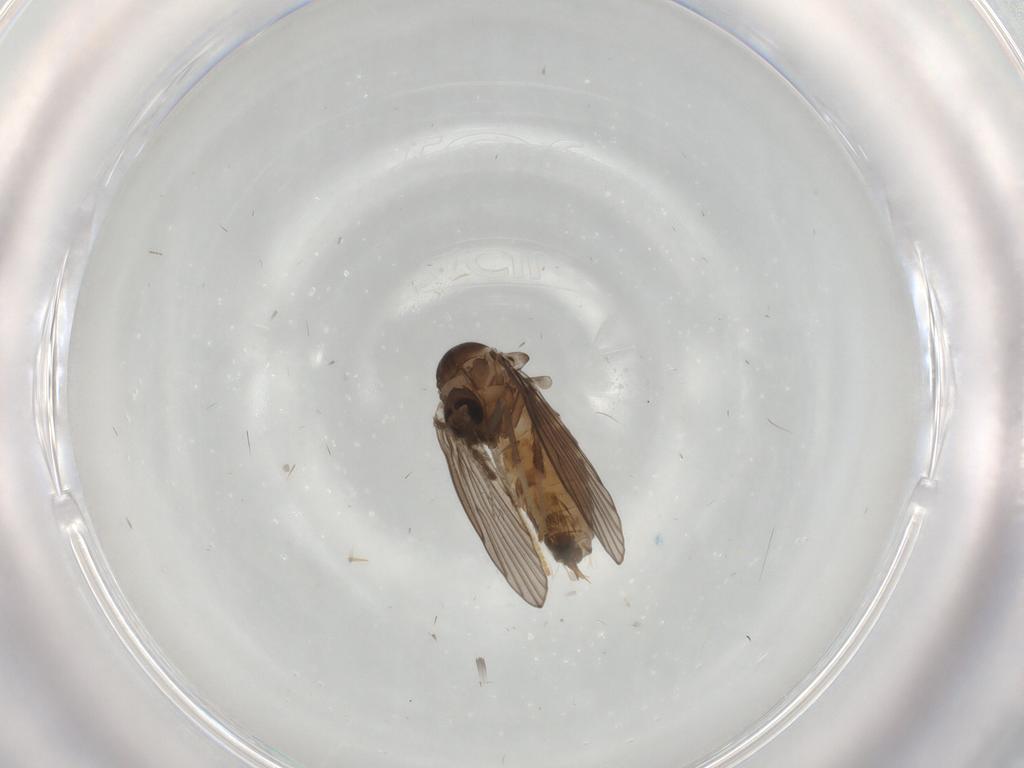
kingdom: Animalia
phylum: Arthropoda
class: Insecta
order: Diptera
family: Psychodidae
